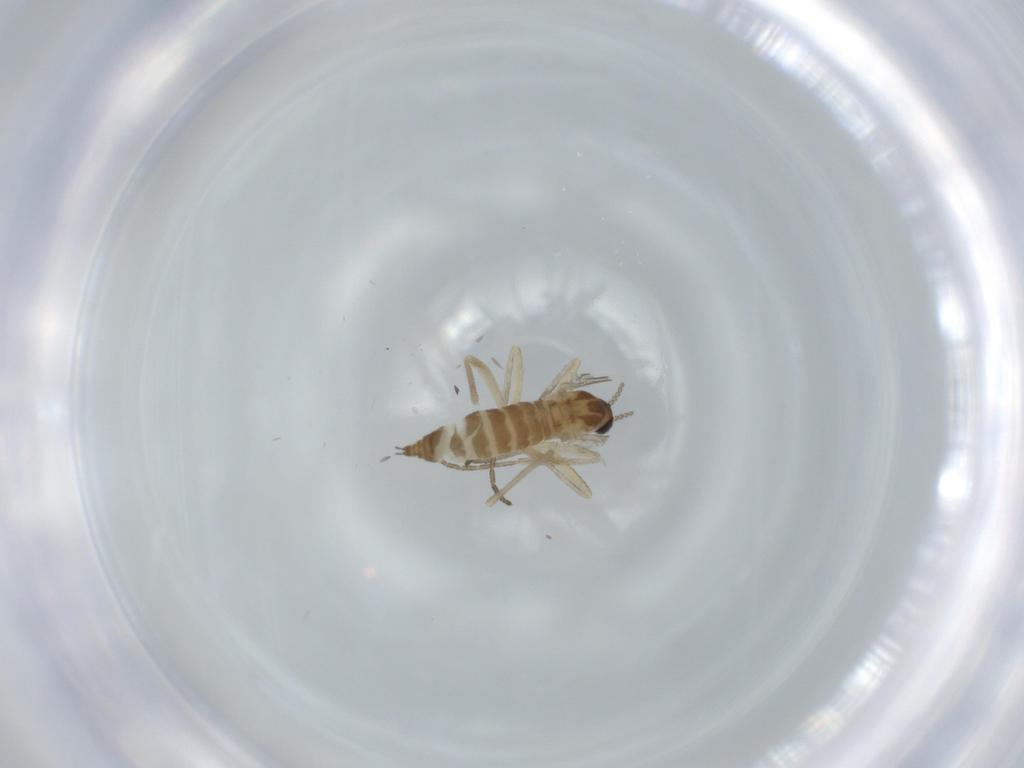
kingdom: Animalia
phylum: Arthropoda
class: Insecta
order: Diptera
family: Cecidomyiidae
